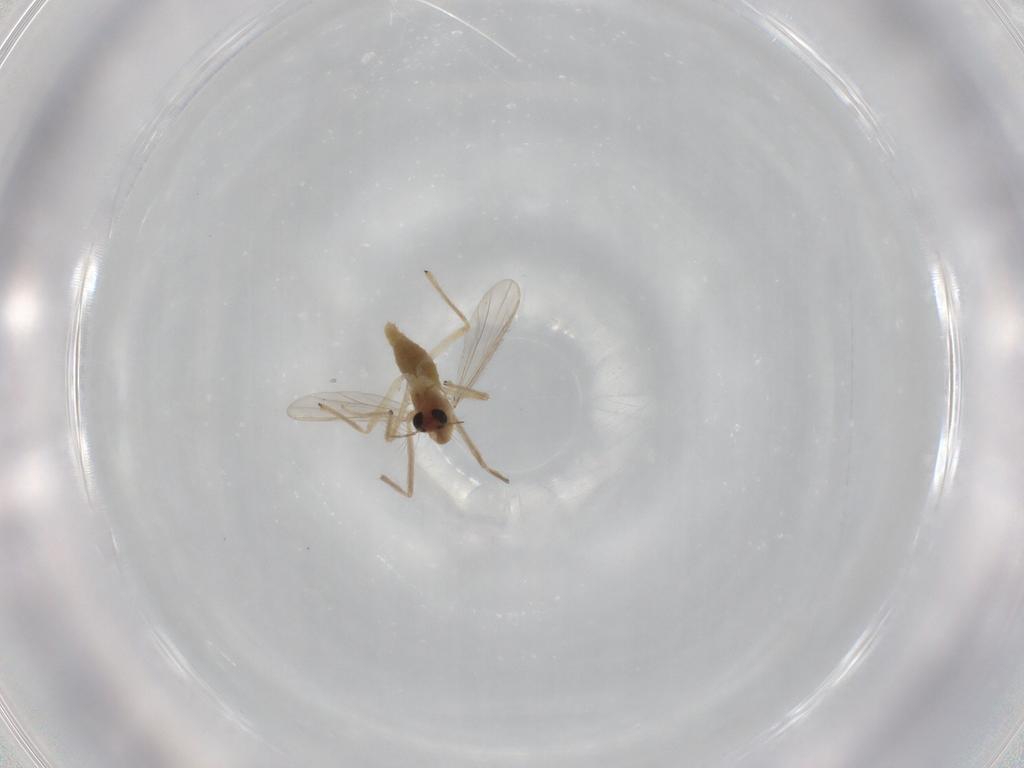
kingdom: Animalia
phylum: Arthropoda
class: Insecta
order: Diptera
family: Chironomidae
